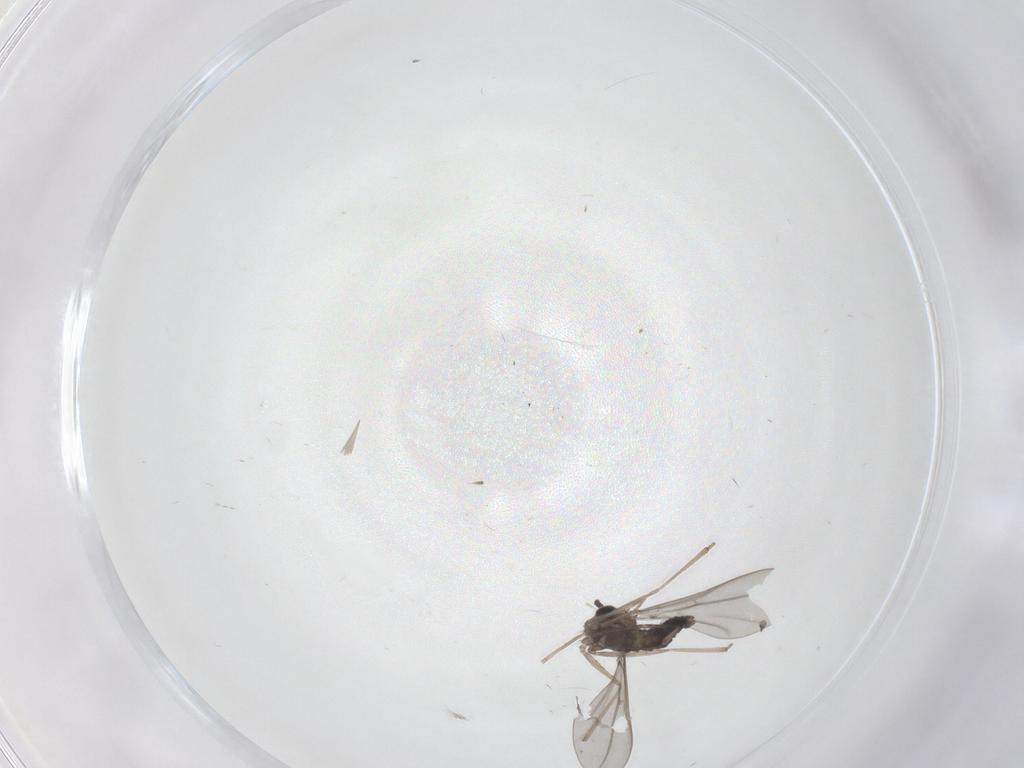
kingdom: Animalia
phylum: Arthropoda
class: Insecta
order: Diptera
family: Cecidomyiidae
